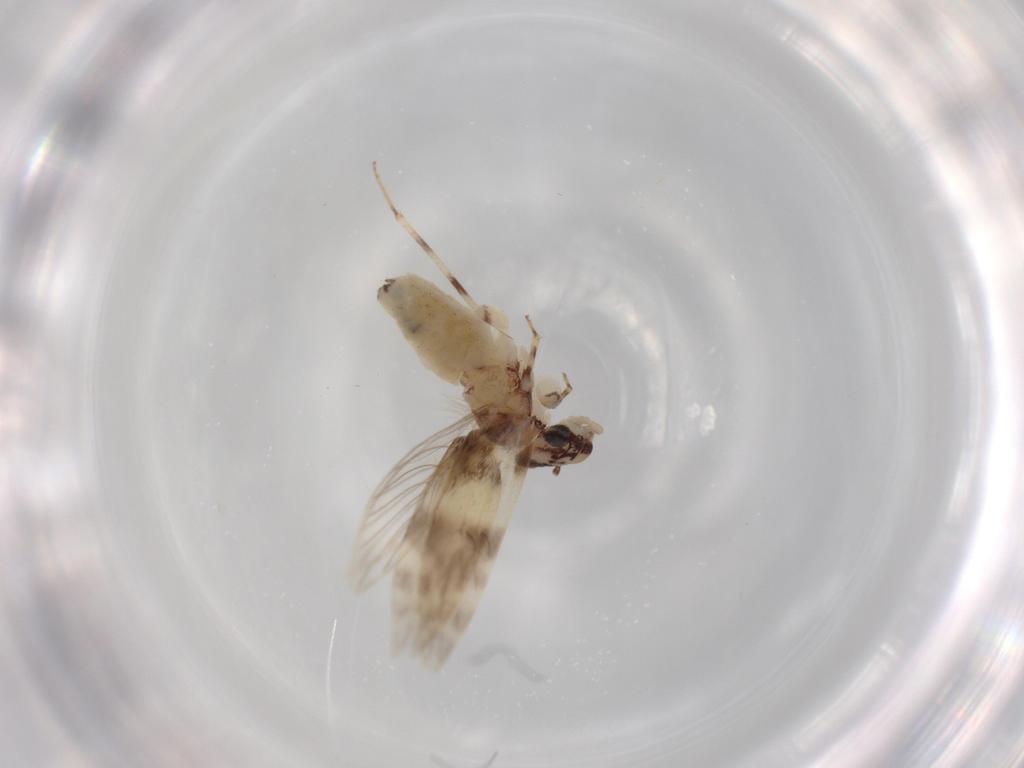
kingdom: Animalia
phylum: Arthropoda
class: Insecta
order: Psocodea
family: Lepidopsocidae
